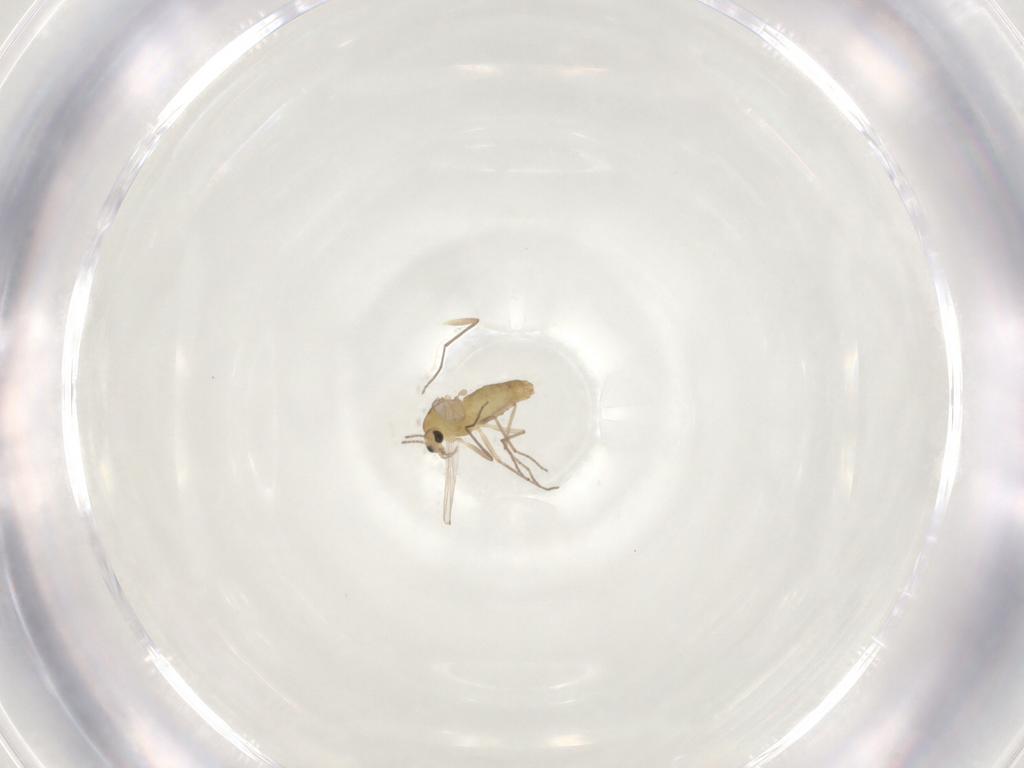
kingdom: Animalia
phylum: Arthropoda
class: Insecta
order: Diptera
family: Chironomidae
